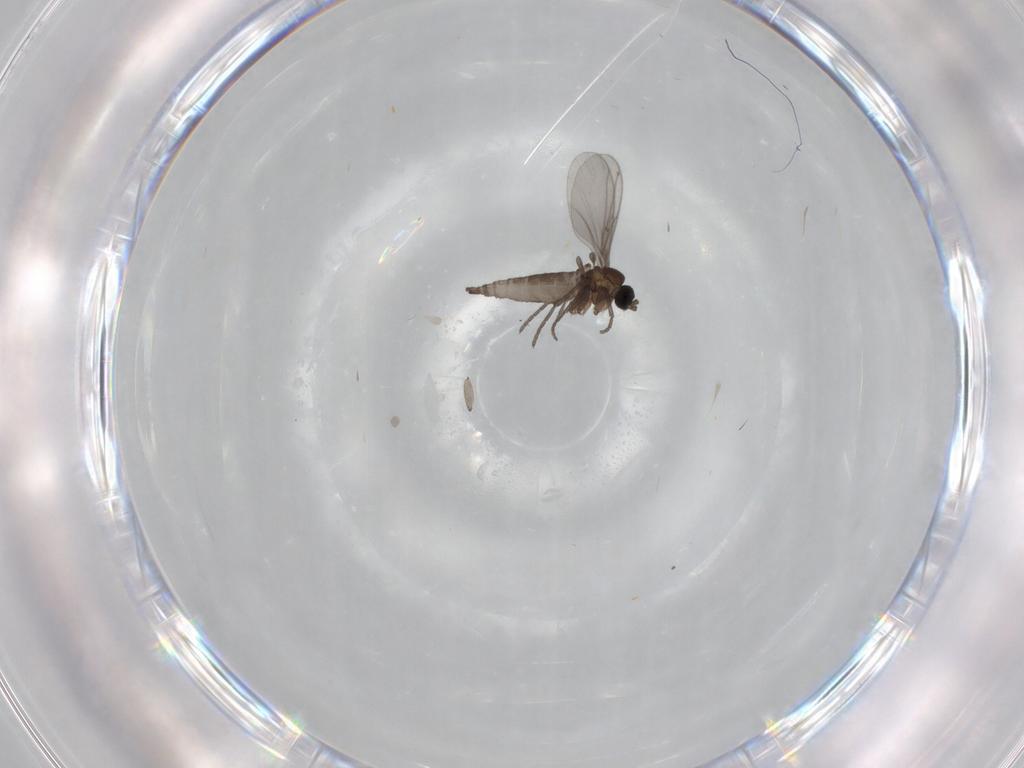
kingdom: Animalia
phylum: Arthropoda
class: Insecta
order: Diptera
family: Sciaridae
